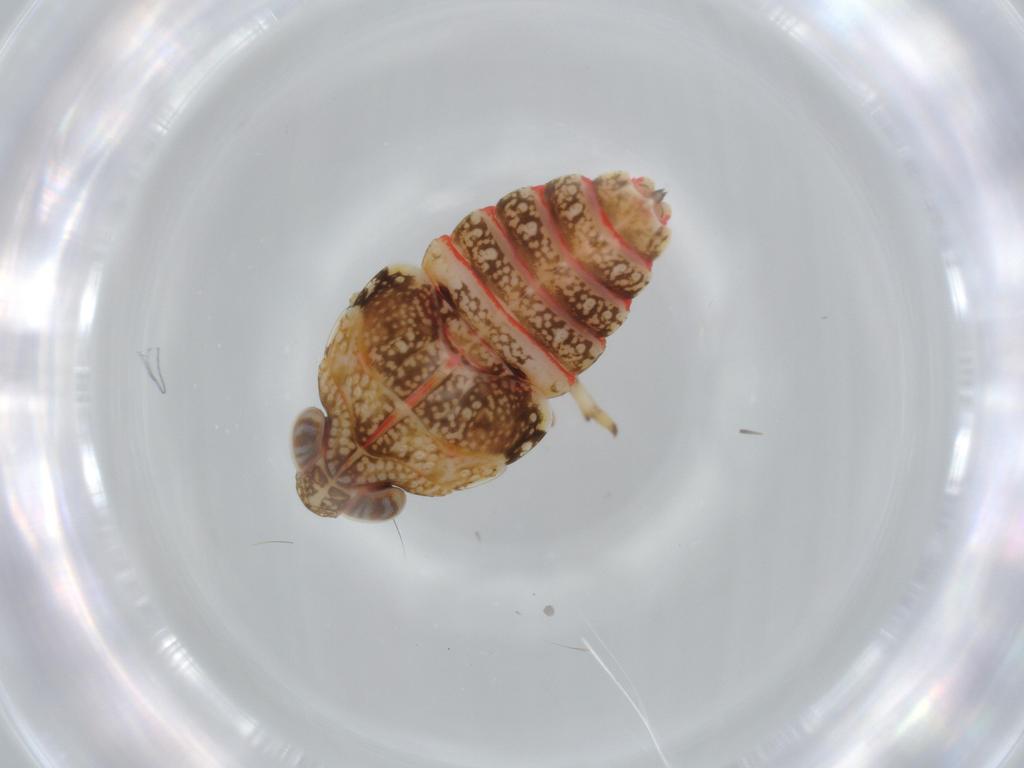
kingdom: Animalia
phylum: Arthropoda
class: Insecta
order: Hemiptera
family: Issidae
